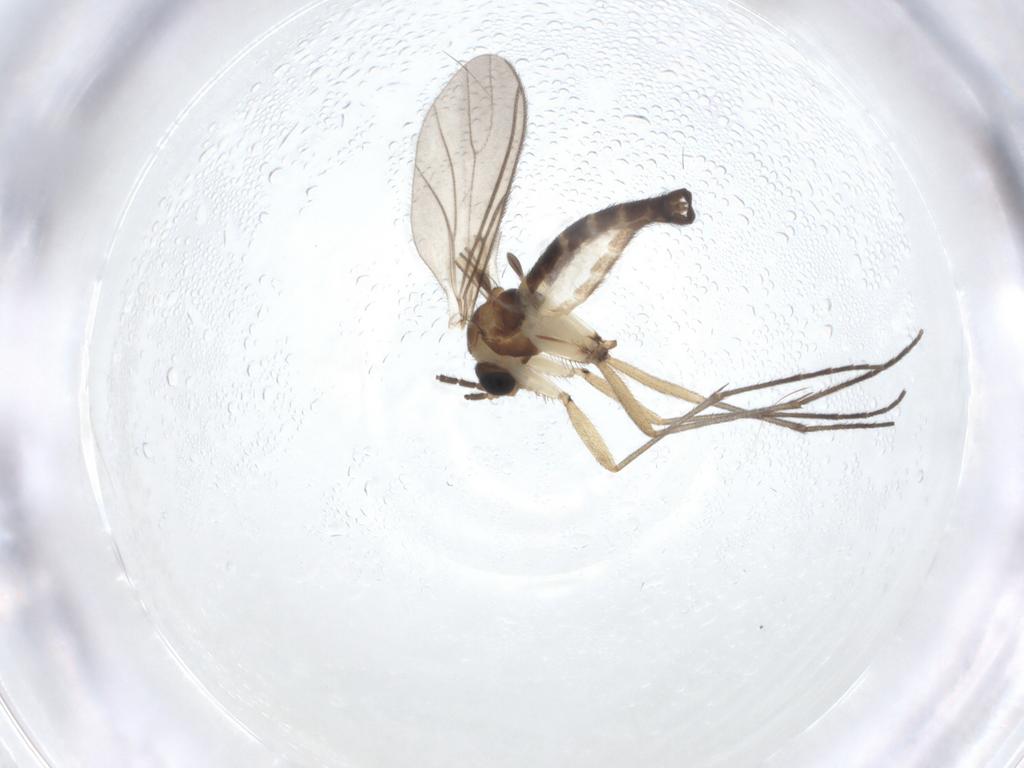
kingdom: Animalia
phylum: Arthropoda
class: Insecta
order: Diptera
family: Sciaridae
